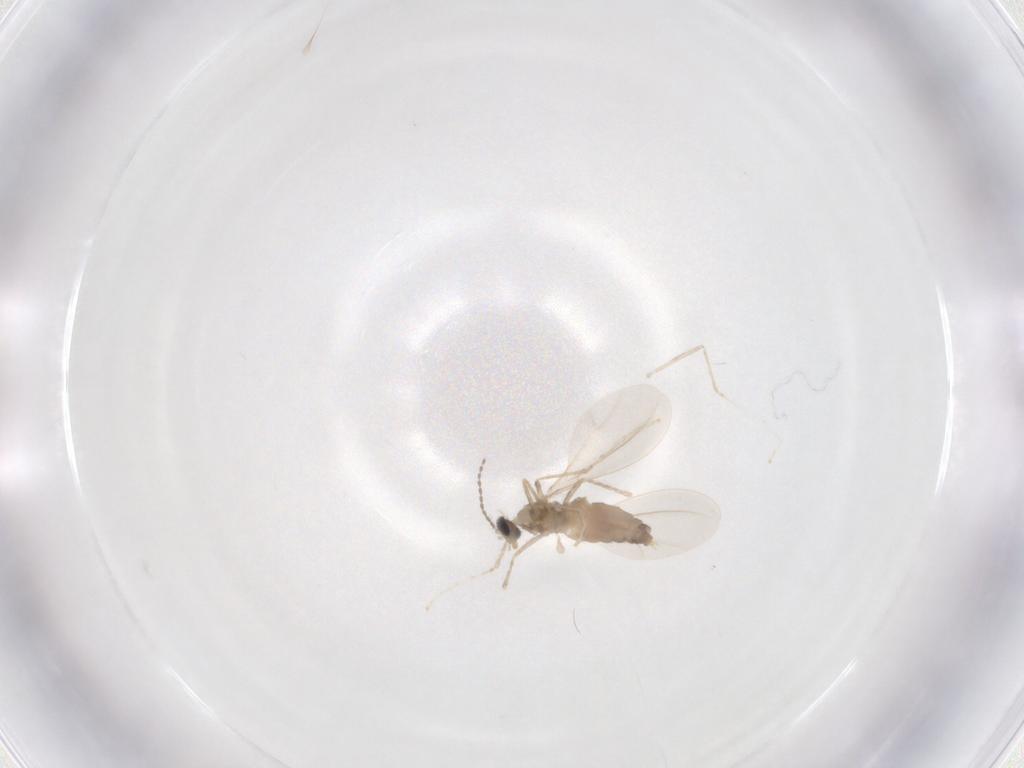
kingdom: Animalia
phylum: Arthropoda
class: Insecta
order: Diptera
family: Cecidomyiidae
